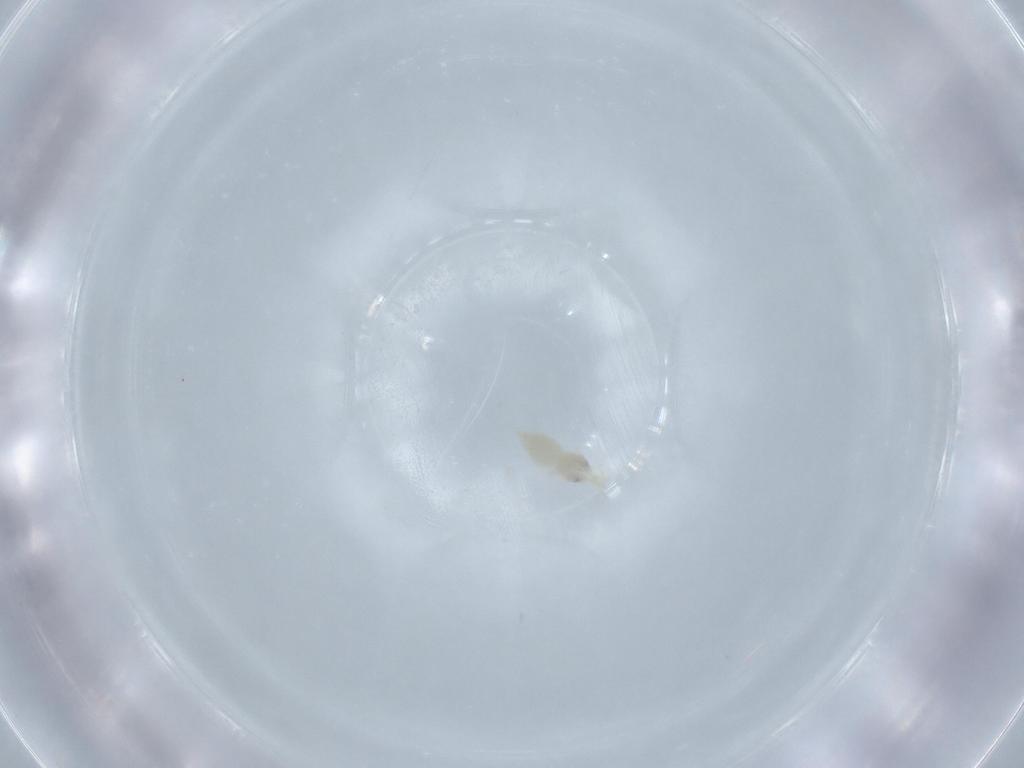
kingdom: Animalia
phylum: Arthropoda
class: Insecta
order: Hemiptera
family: Aleyrodidae
